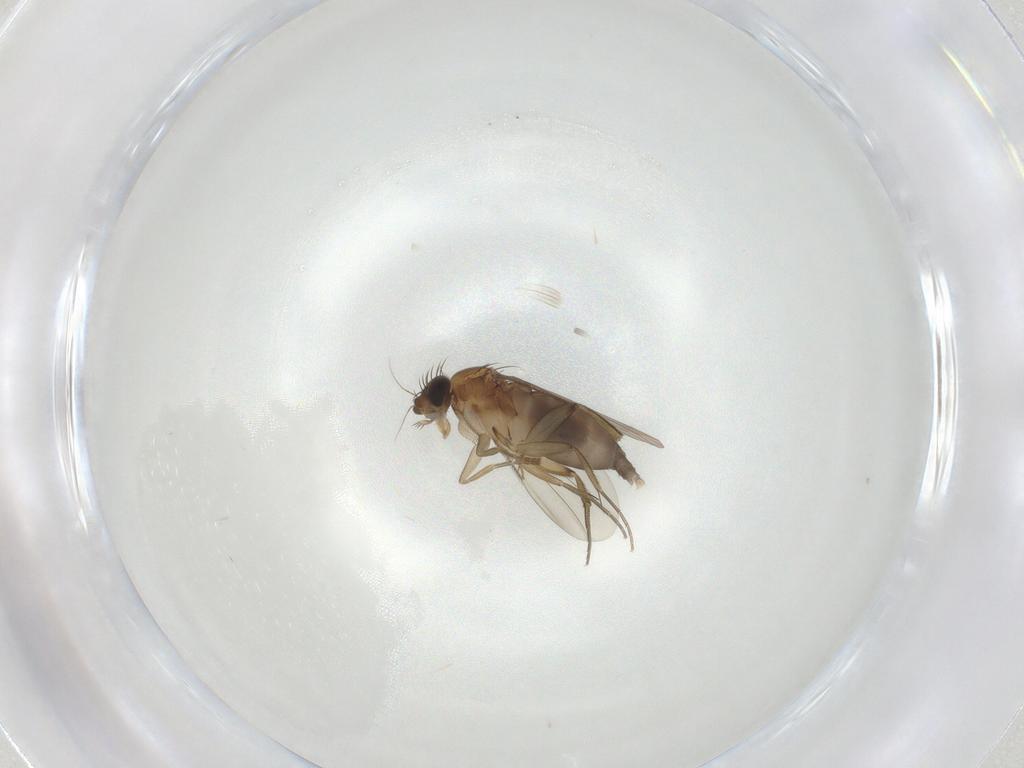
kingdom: Animalia
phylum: Arthropoda
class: Insecta
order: Diptera
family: Phoridae
